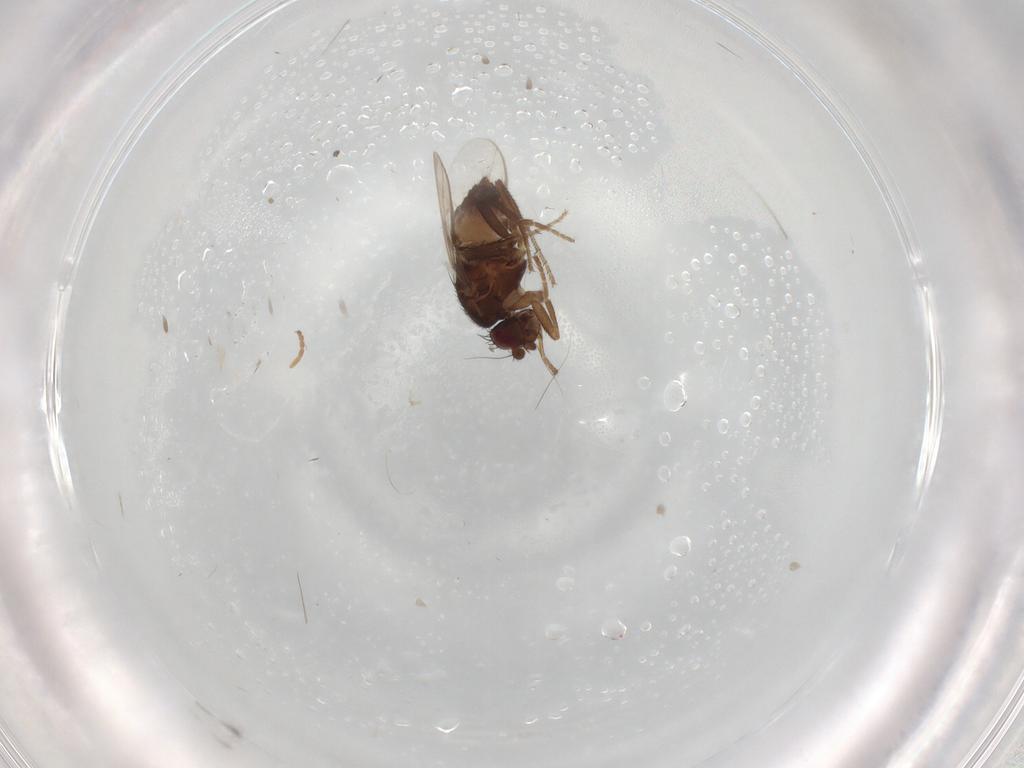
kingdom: Animalia
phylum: Arthropoda
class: Insecta
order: Diptera
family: Sphaeroceridae
